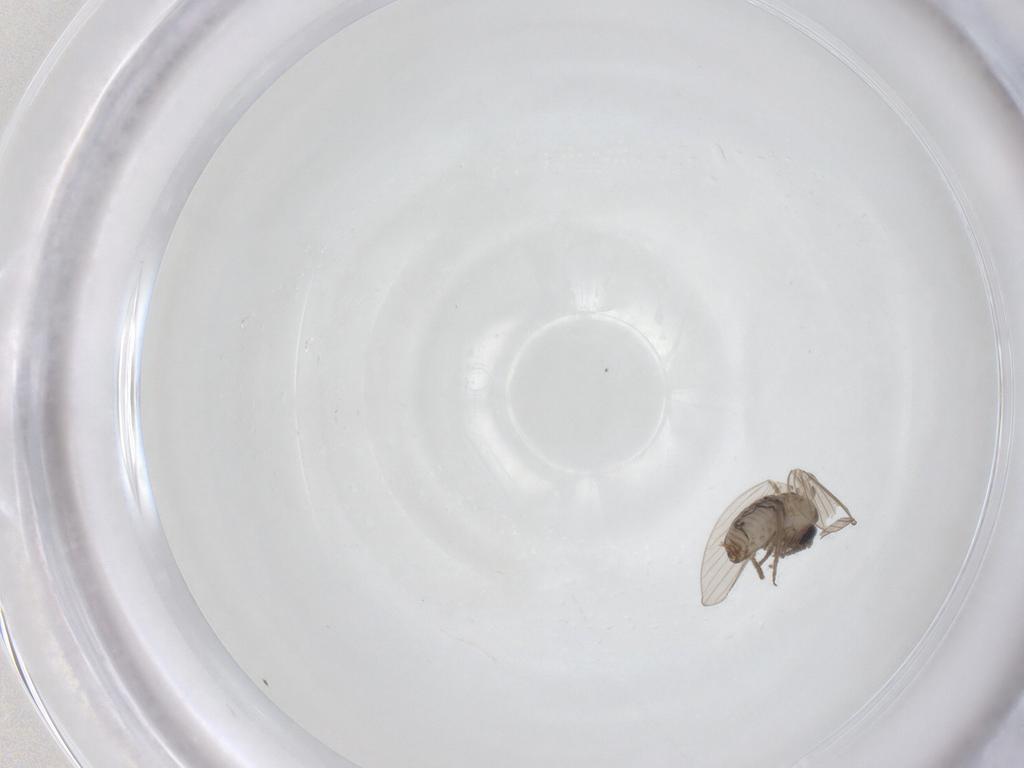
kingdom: Animalia
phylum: Arthropoda
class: Insecta
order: Diptera
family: Psychodidae
